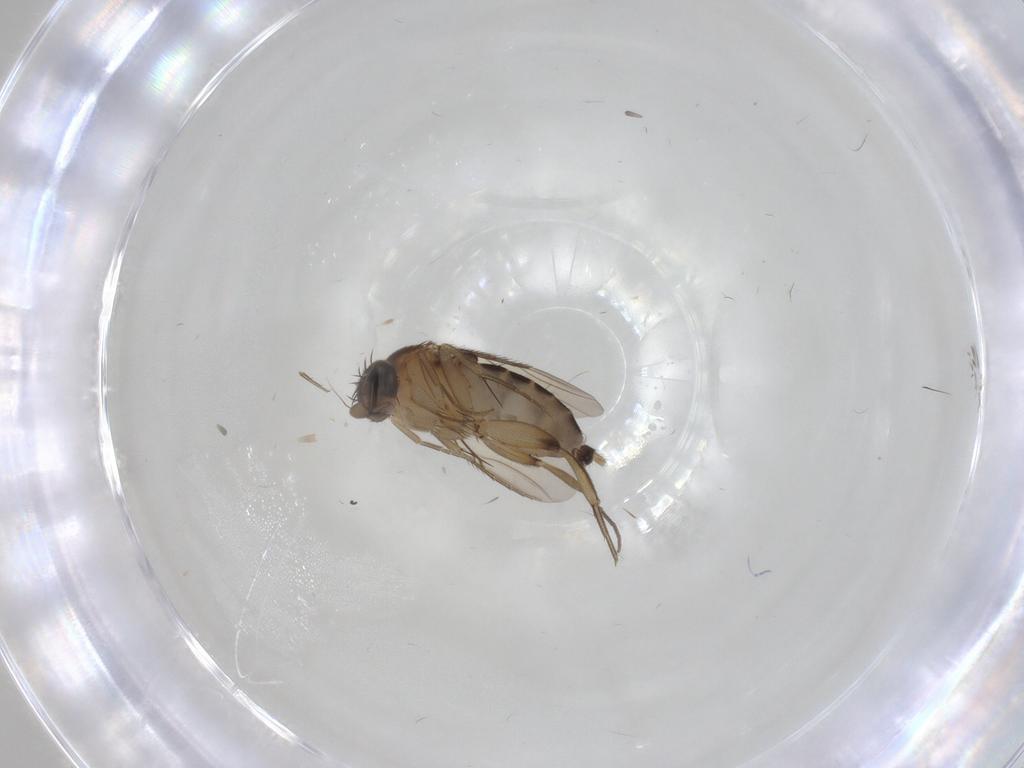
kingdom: Animalia
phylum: Arthropoda
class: Insecta
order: Diptera
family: Phoridae
